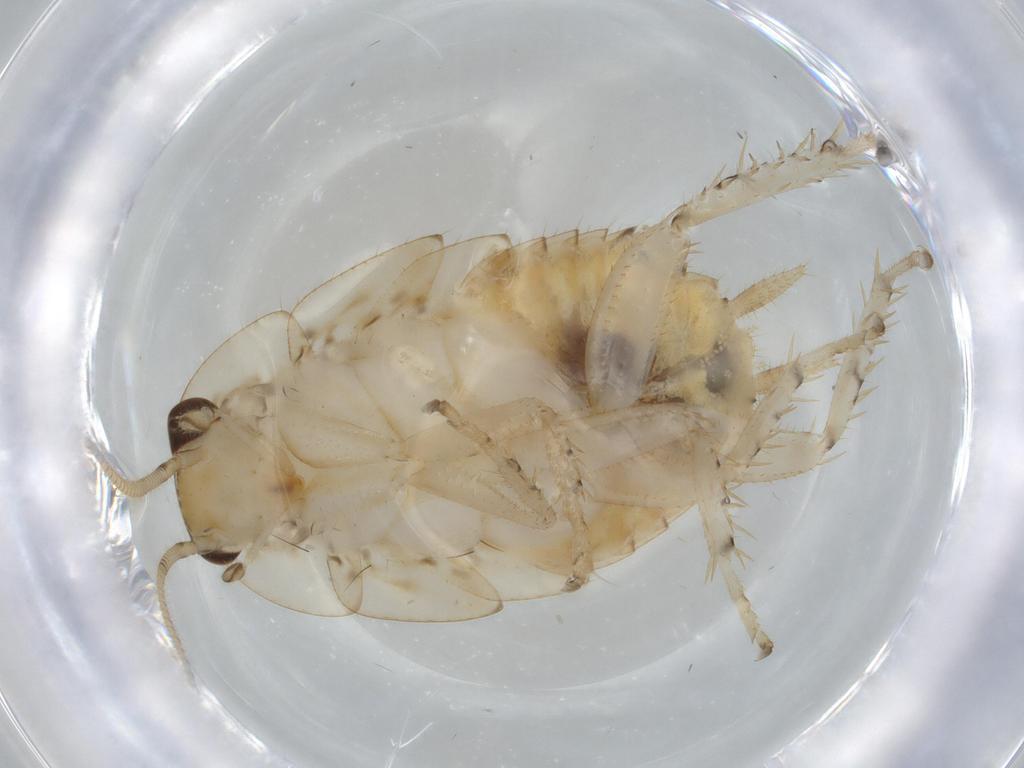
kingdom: Animalia
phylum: Arthropoda
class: Insecta
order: Blattodea
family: Ectobiidae
